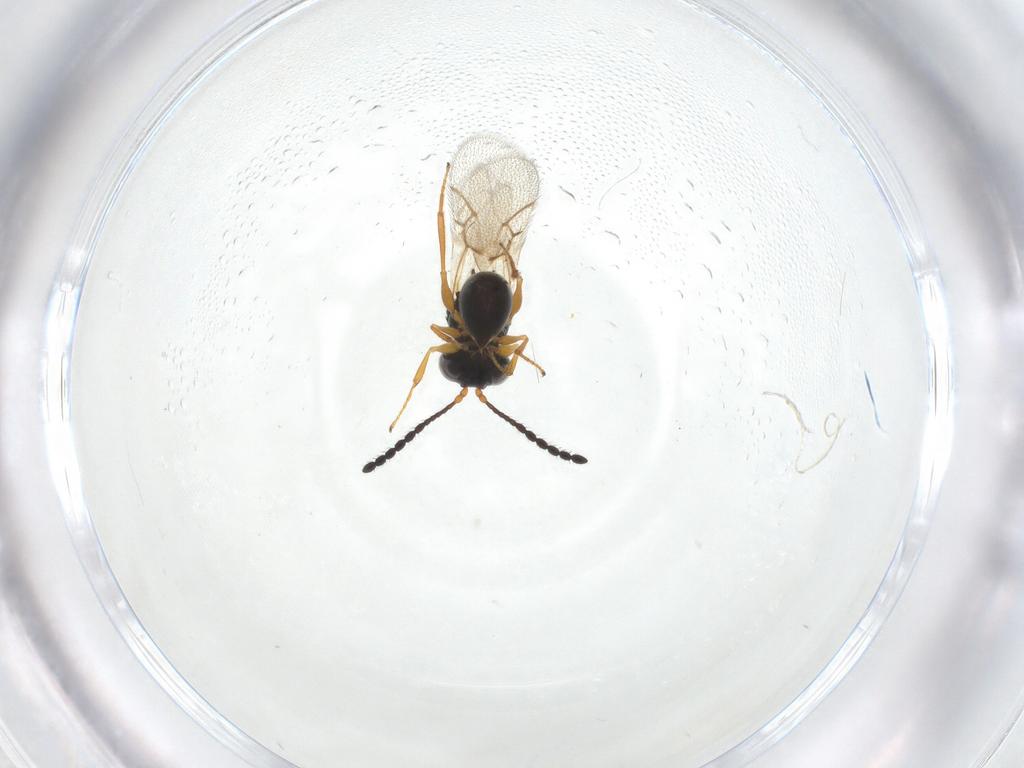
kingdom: Animalia
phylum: Arthropoda
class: Insecta
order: Hymenoptera
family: Figitidae
